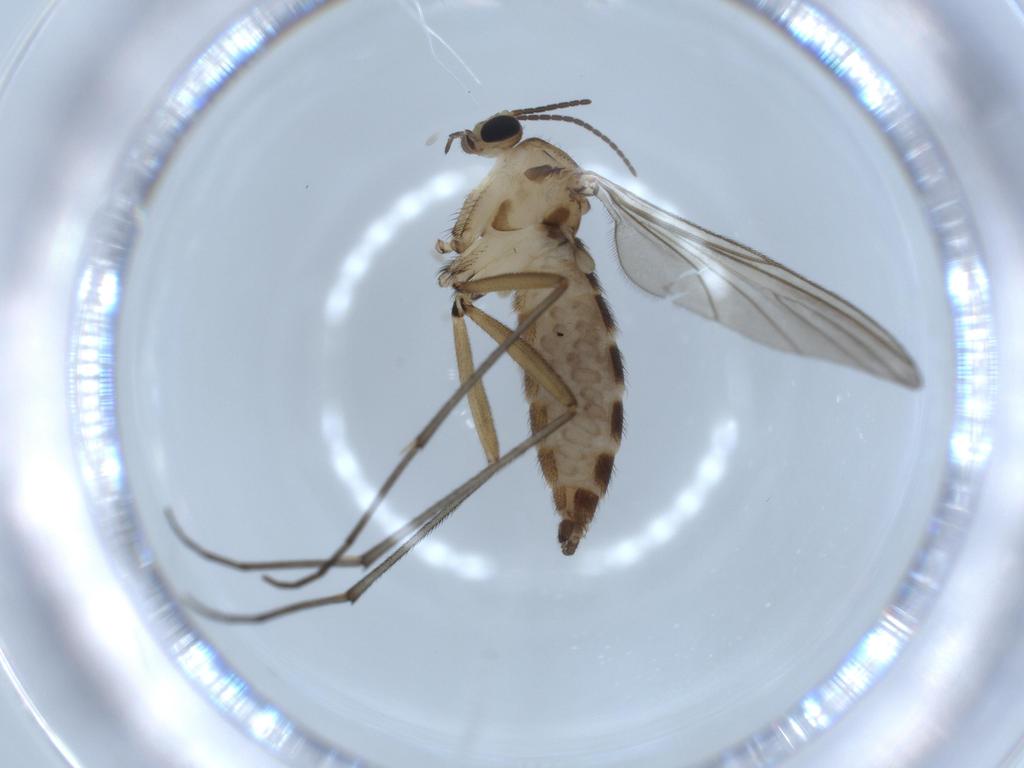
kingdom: Animalia
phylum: Arthropoda
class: Insecta
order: Diptera
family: Sciaridae
